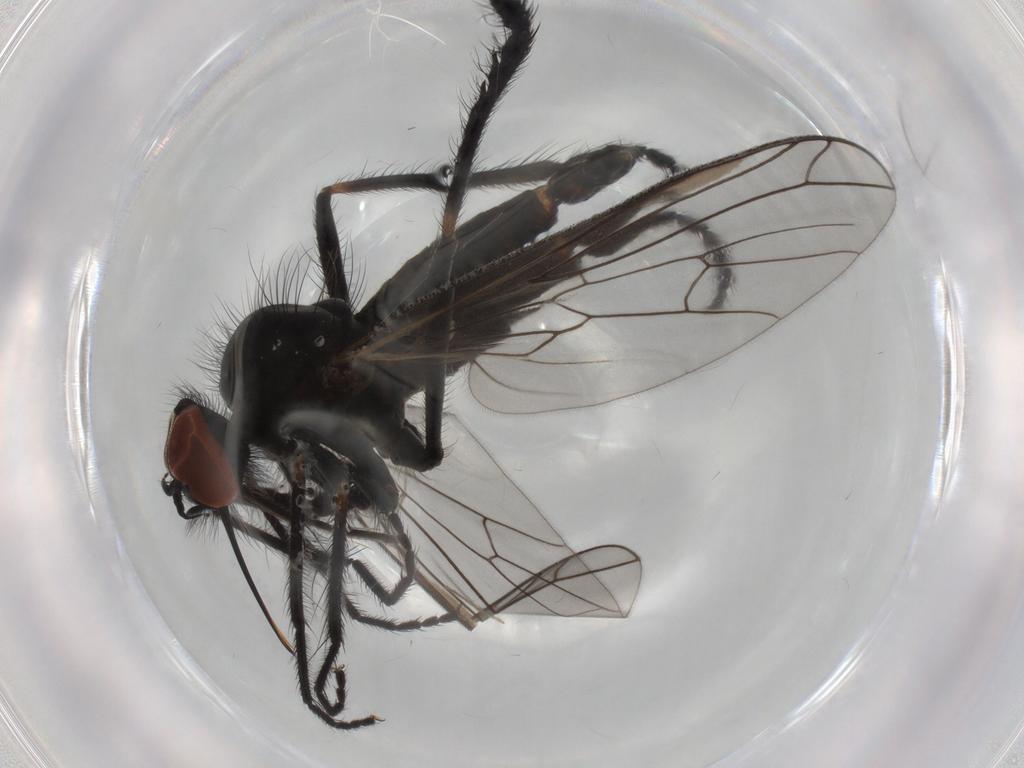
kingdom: Animalia
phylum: Arthropoda
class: Insecta
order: Diptera
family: Empididae
